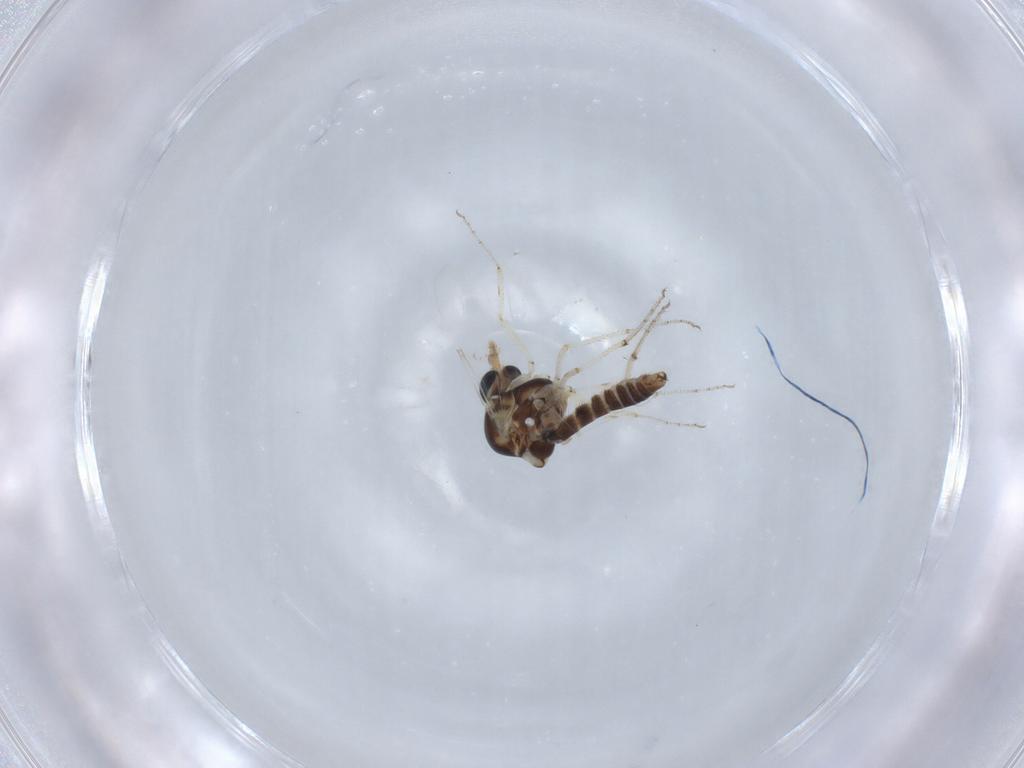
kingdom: Animalia
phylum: Arthropoda
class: Insecta
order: Diptera
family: Ceratopogonidae
